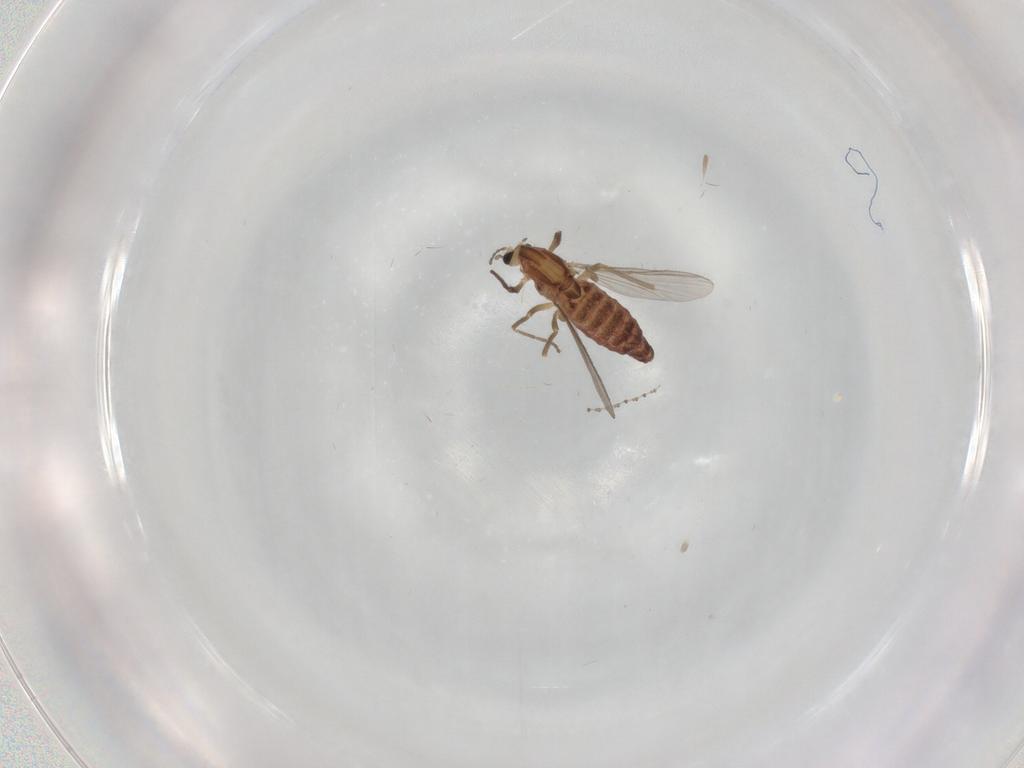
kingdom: Animalia
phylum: Arthropoda
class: Insecta
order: Diptera
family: Chironomidae
